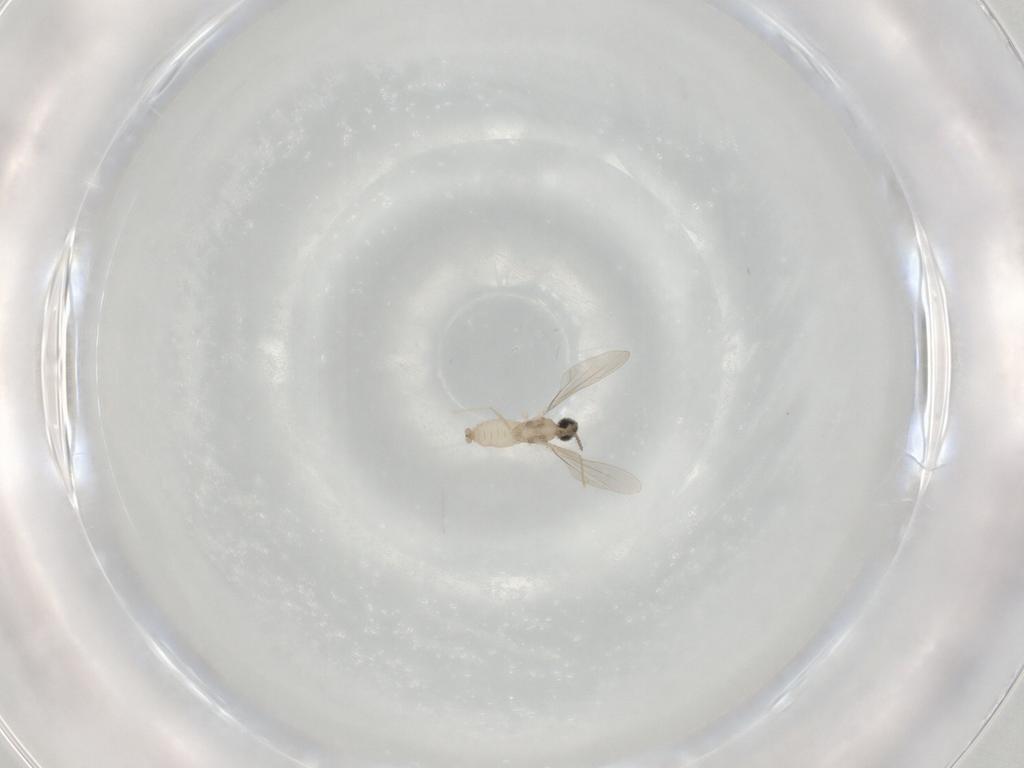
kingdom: Animalia
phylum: Arthropoda
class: Insecta
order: Diptera
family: Cecidomyiidae
